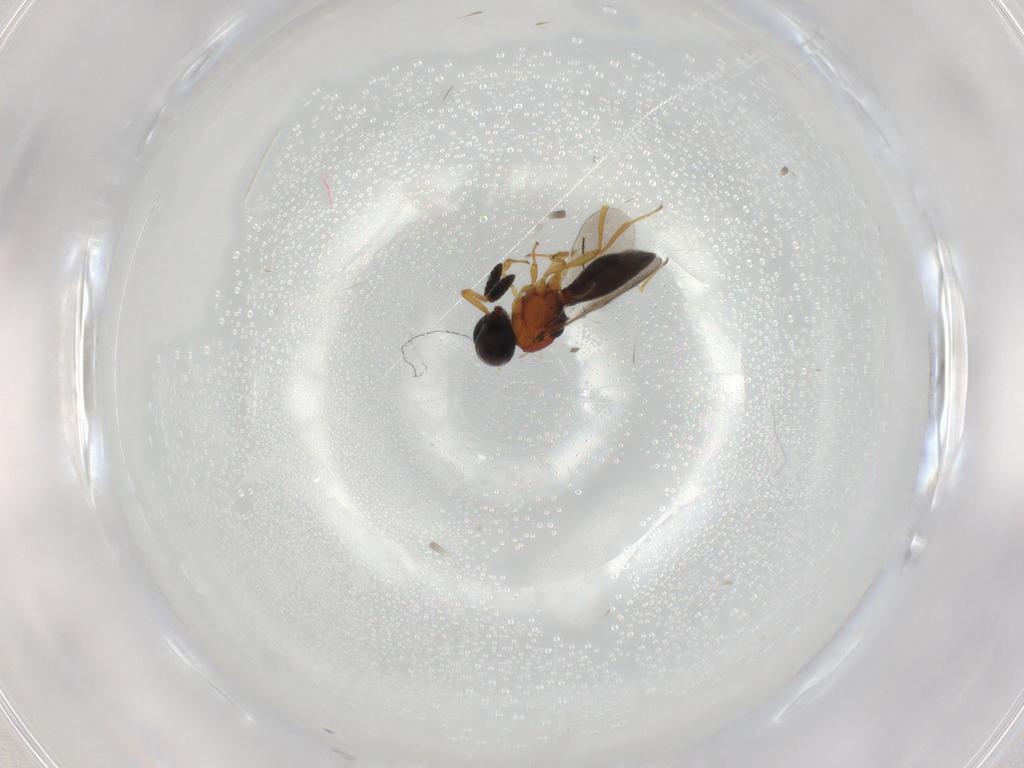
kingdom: Animalia
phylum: Arthropoda
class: Insecta
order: Hymenoptera
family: Scelionidae
